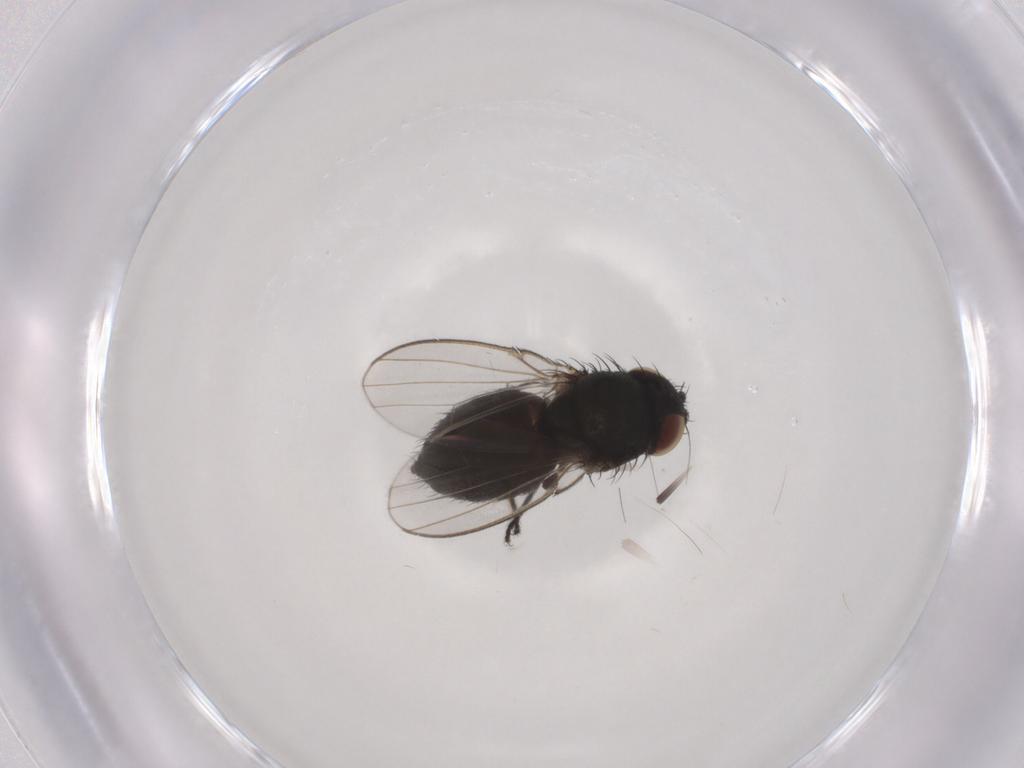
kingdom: Animalia
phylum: Arthropoda
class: Insecta
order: Diptera
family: Milichiidae
